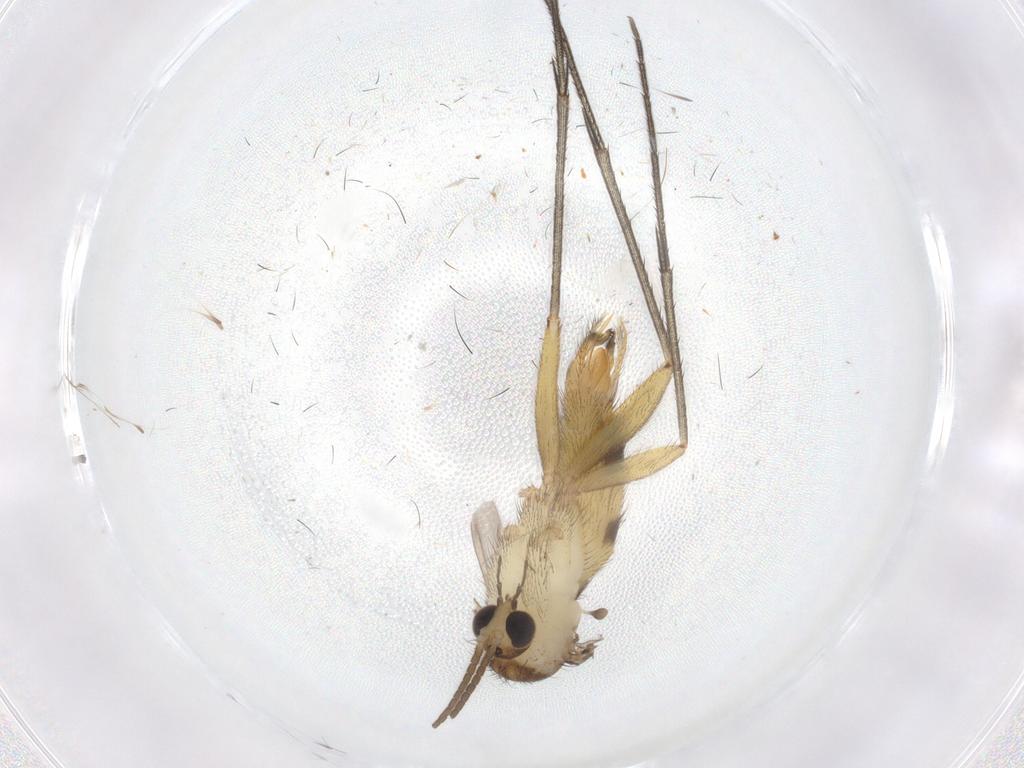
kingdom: Animalia
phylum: Arthropoda
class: Insecta
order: Diptera
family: Mycetophilidae
